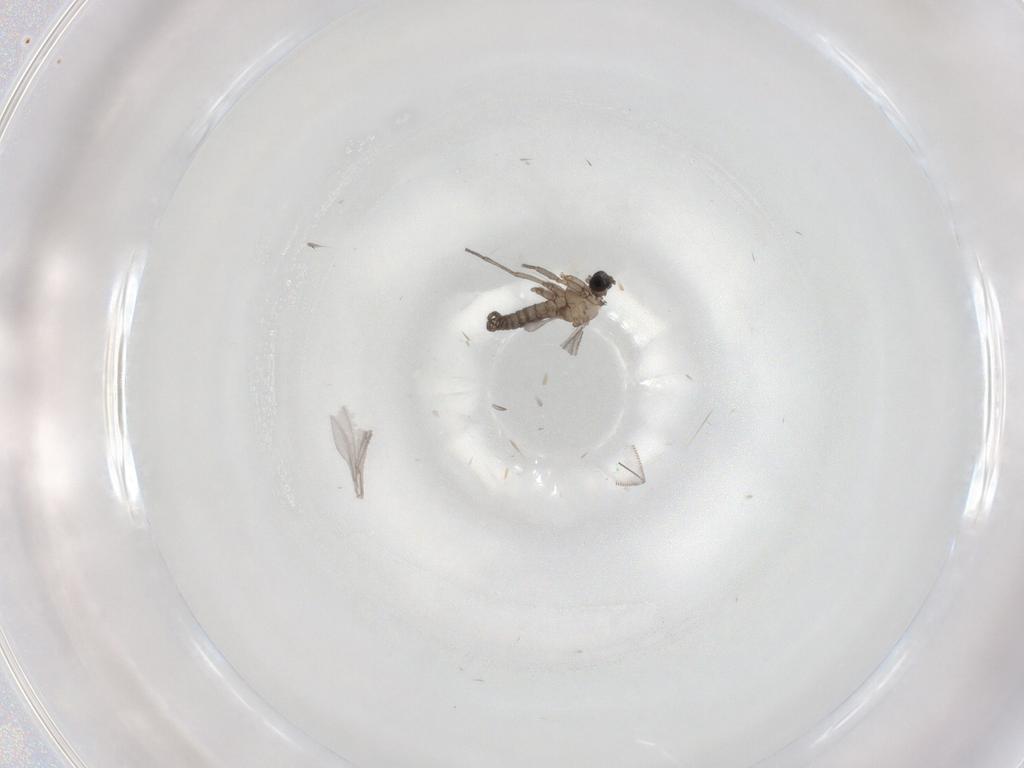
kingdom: Animalia
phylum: Arthropoda
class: Insecta
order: Diptera
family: Sciaridae
